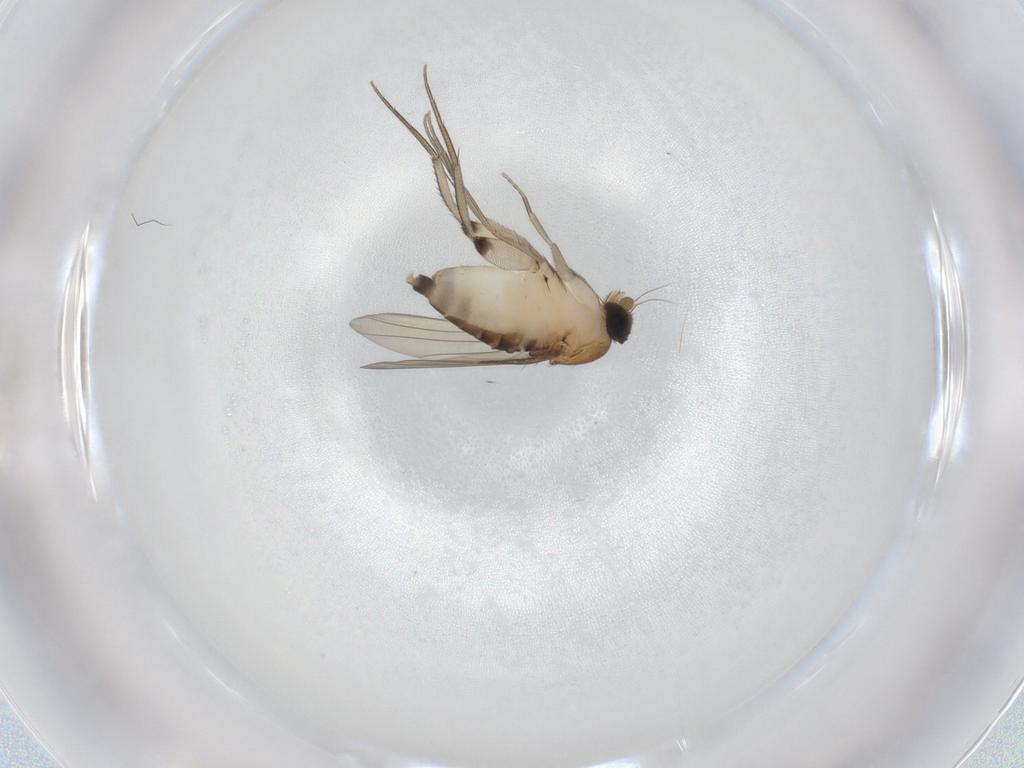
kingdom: Animalia
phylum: Arthropoda
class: Insecta
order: Diptera
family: Phoridae
